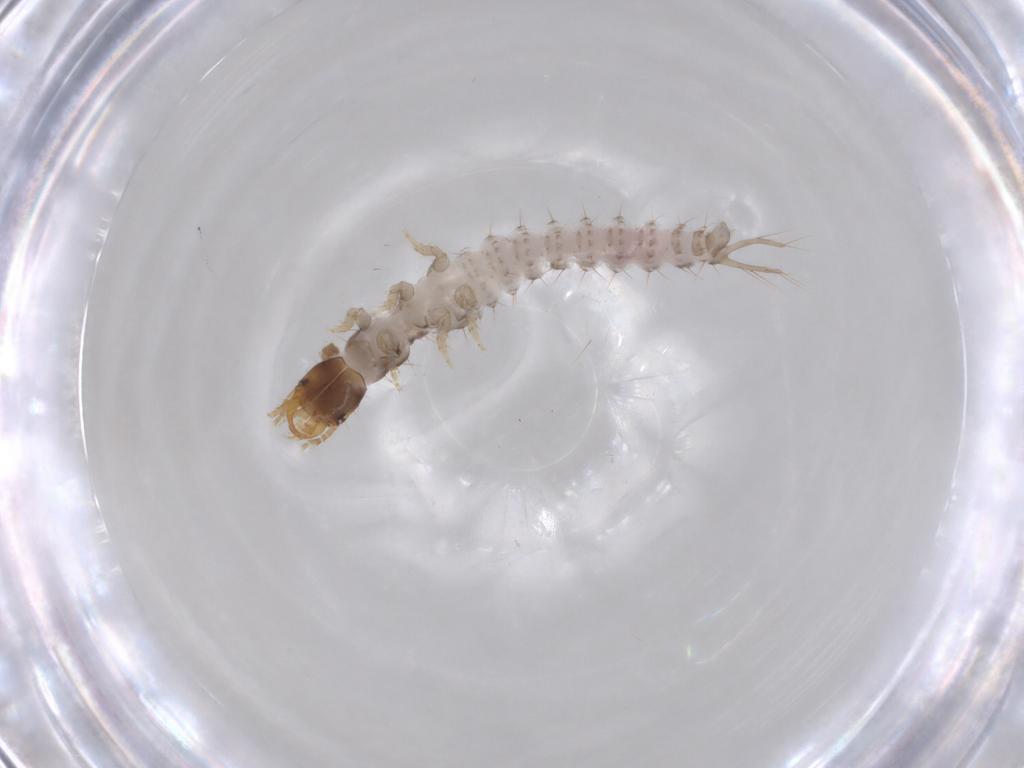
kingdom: Animalia
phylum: Arthropoda
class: Insecta
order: Coleoptera
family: Carabidae
